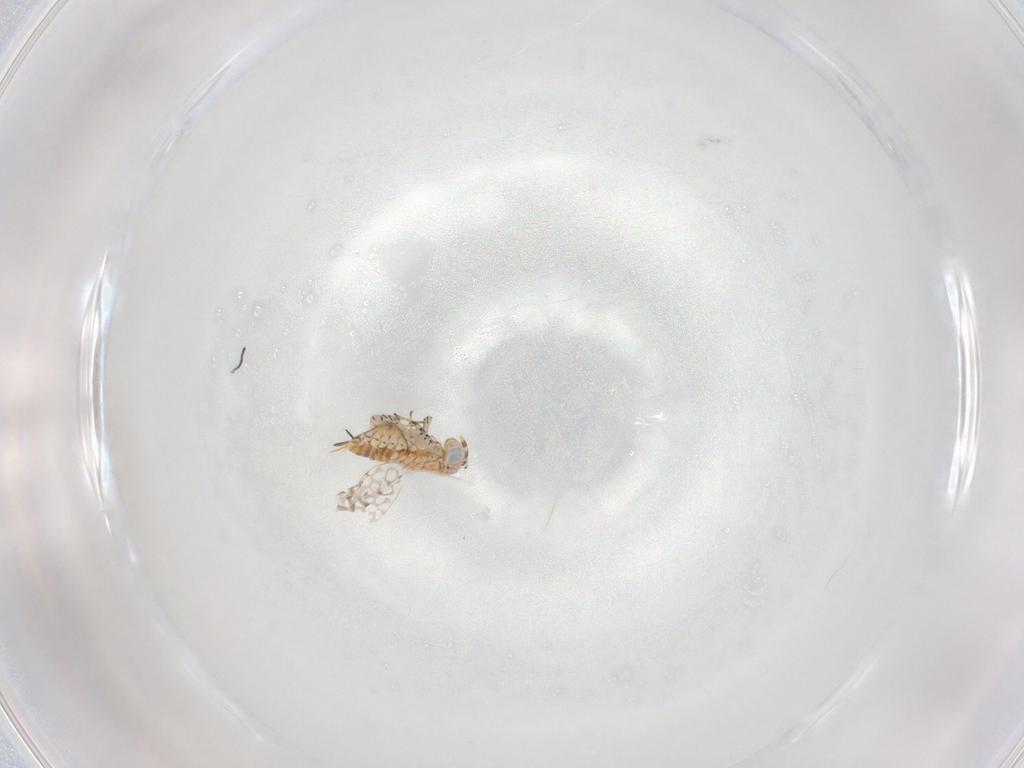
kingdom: Animalia
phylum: Arthropoda
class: Insecta
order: Hymenoptera
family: Aphelinidae
